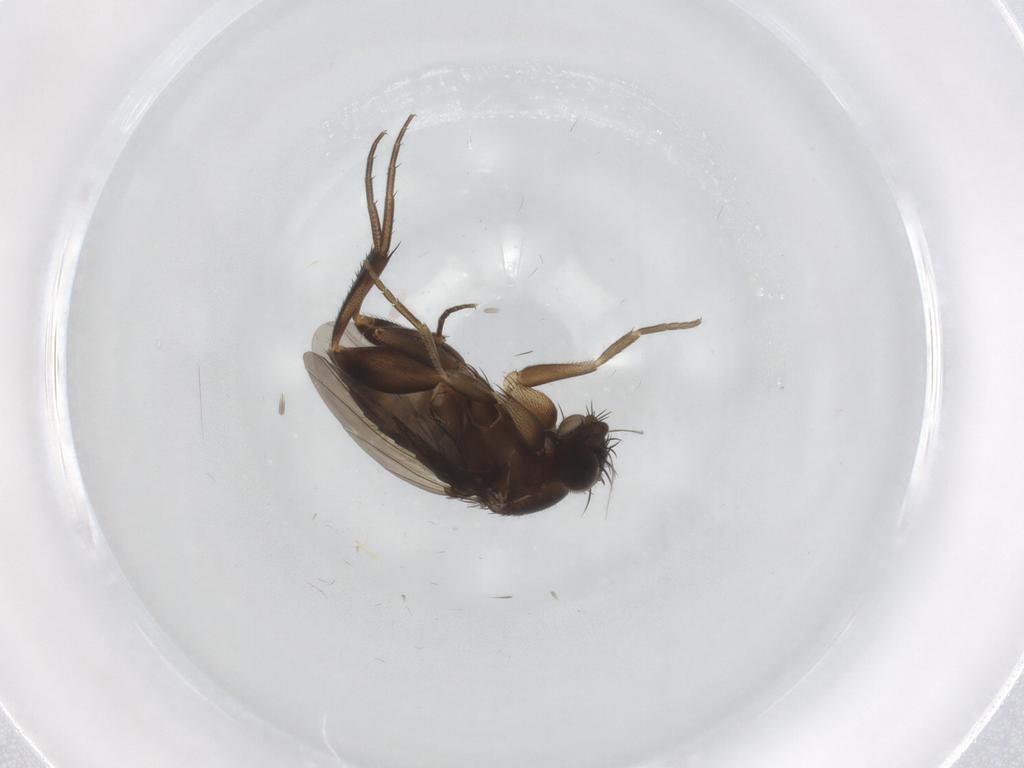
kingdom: Animalia
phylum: Arthropoda
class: Insecta
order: Diptera
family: Phoridae
